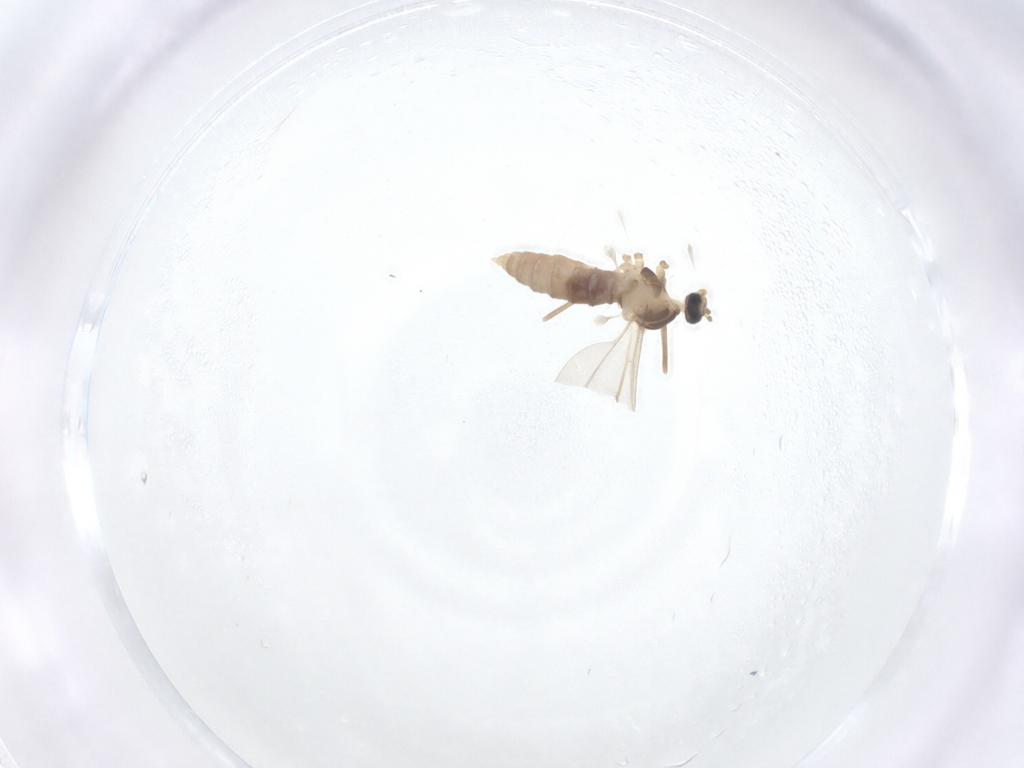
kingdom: Animalia
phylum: Arthropoda
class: Insecta
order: Diptera
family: Cecidomyiidae
